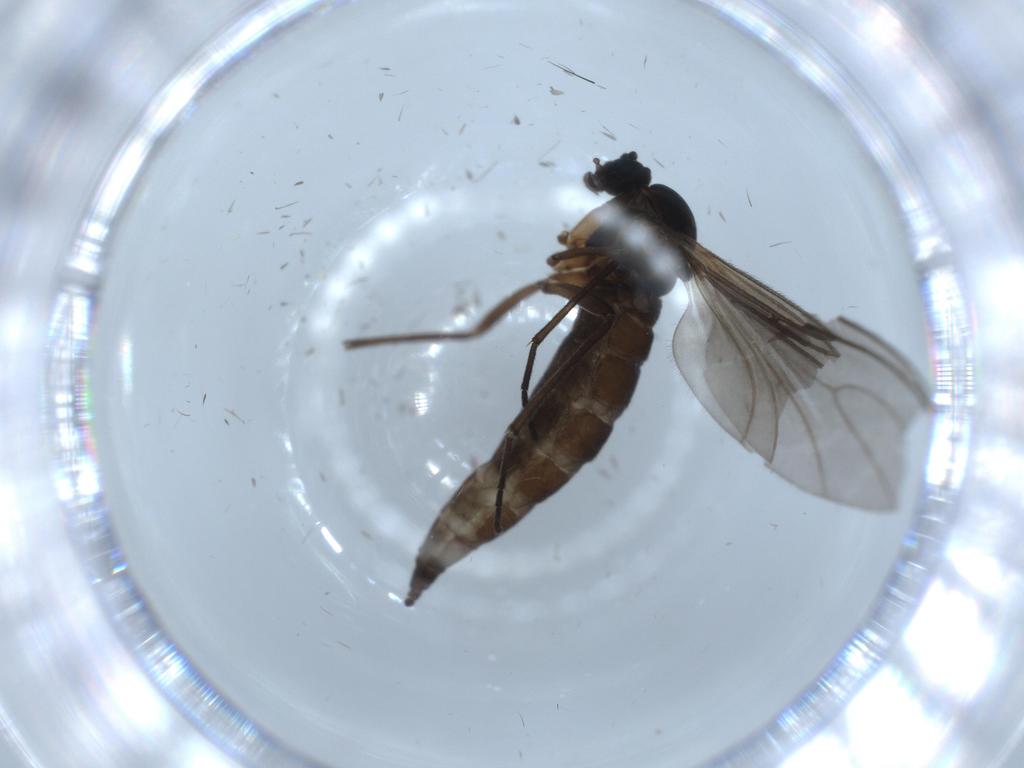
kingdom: Animalia
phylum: Arthropoda
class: Insecta
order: Diptera
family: Sciaridae
